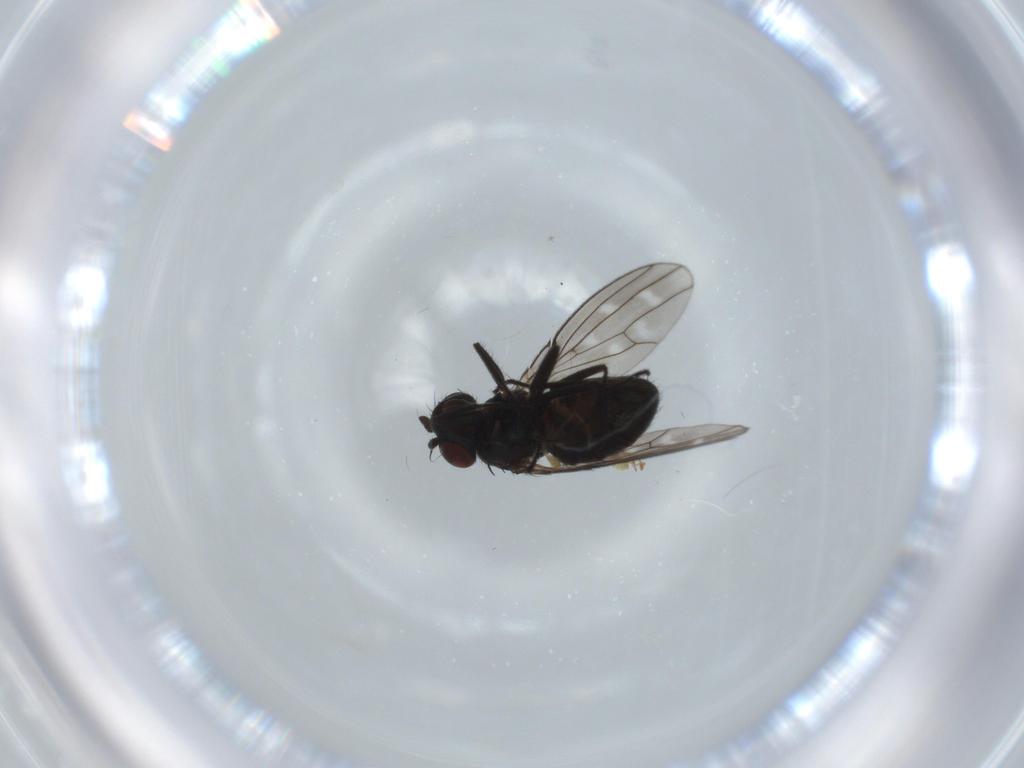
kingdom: Animalia
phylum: Arthropoda
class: Insecta
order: Diptera
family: Ephydridae
